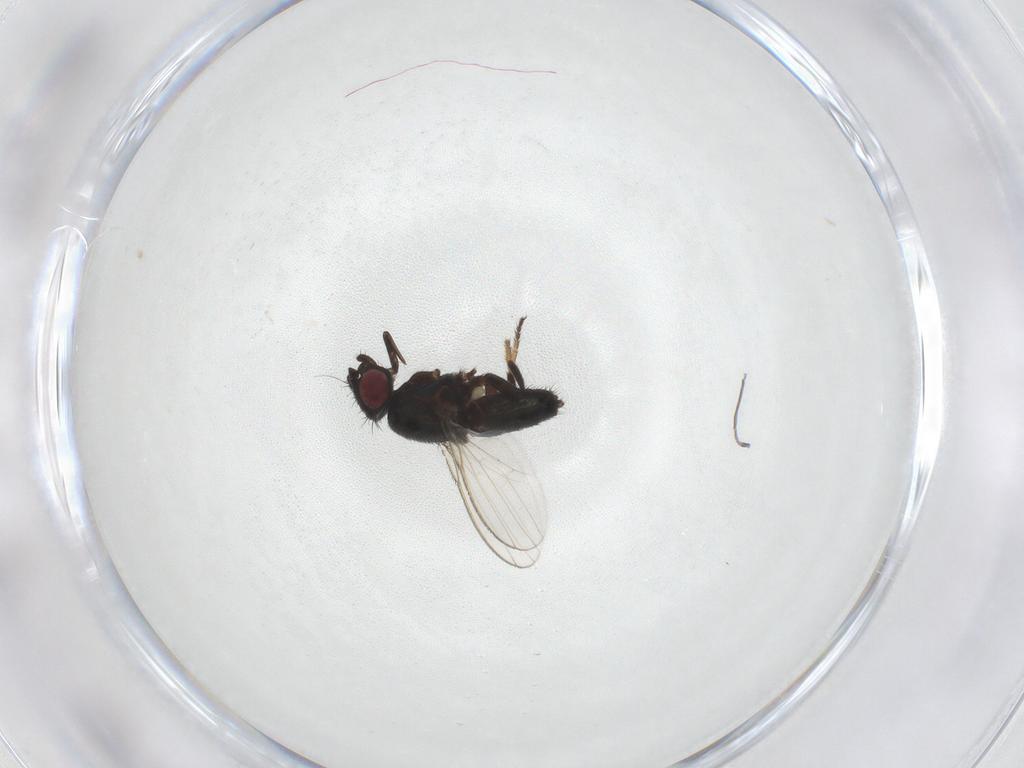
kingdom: Animalia
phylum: Arthropoda
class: Insecta
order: Diptera
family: Milichiidae
